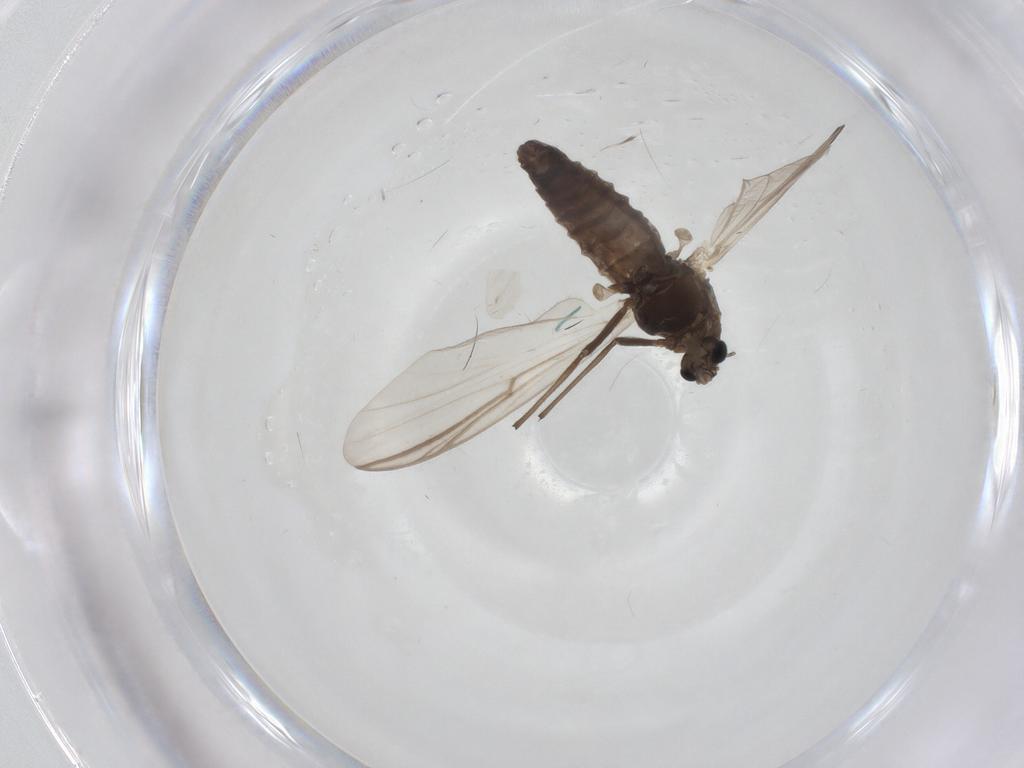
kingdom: Animalia
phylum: Arthropoda
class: Insecta
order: Diptera
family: Chironomidae
